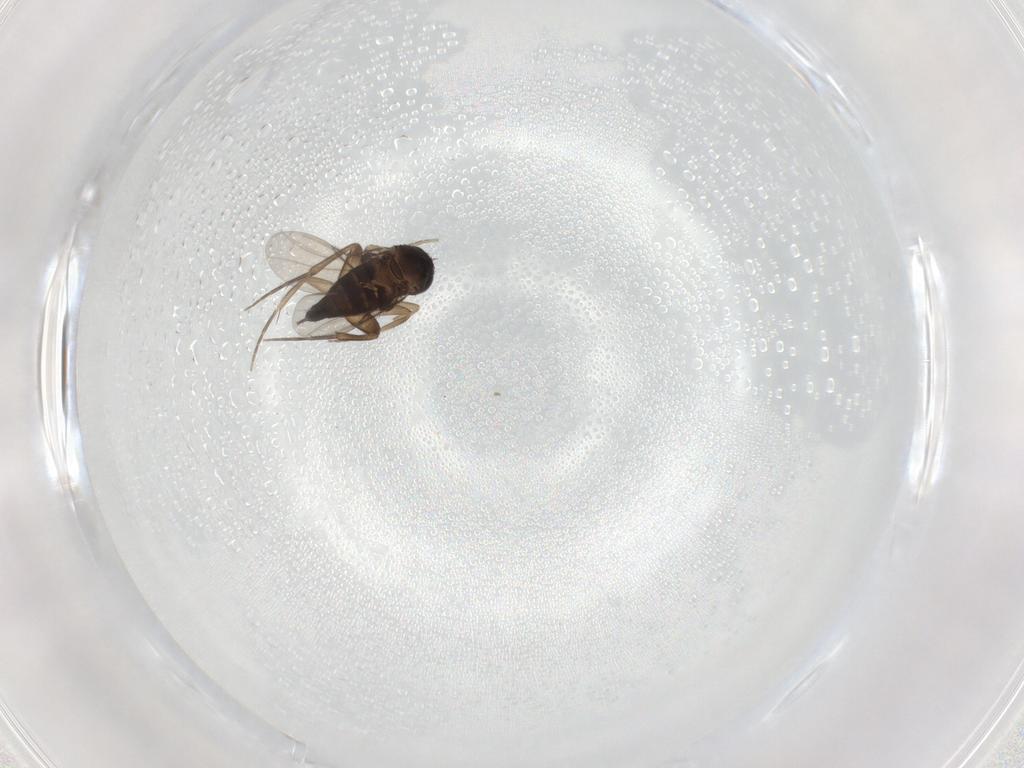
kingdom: Animalia
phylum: Arthropoda
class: Insecta
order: Diptera
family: Phoridae
